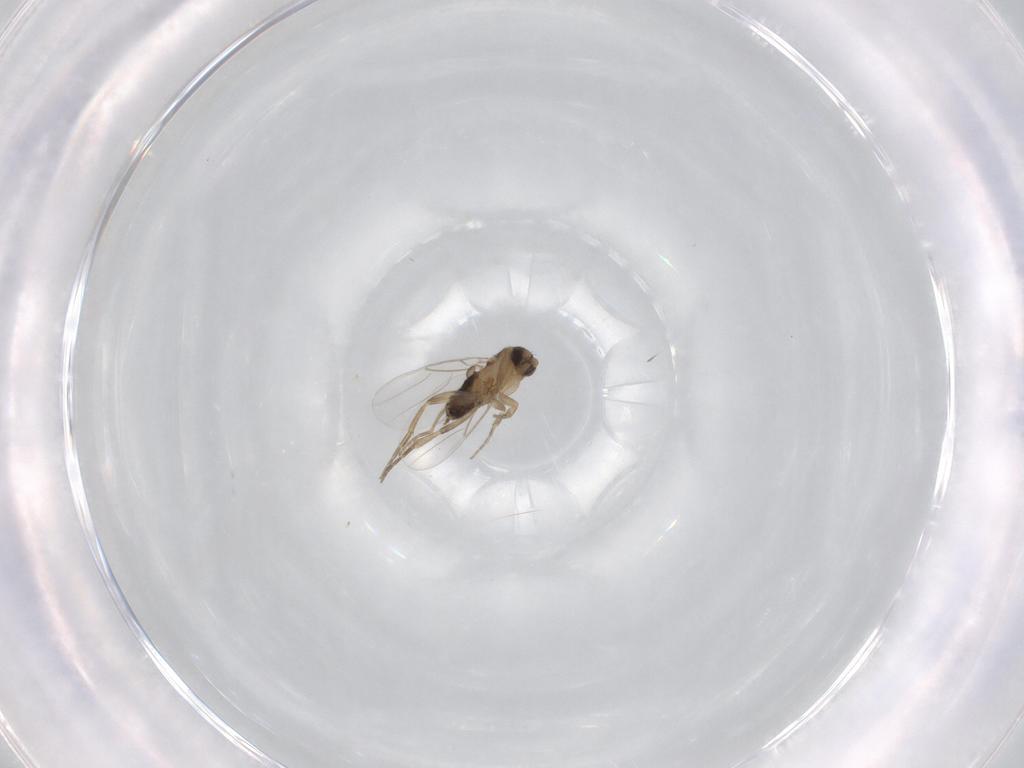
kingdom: Animalia
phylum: Arthropoda
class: Insecta
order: Diptera
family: Phoridae
